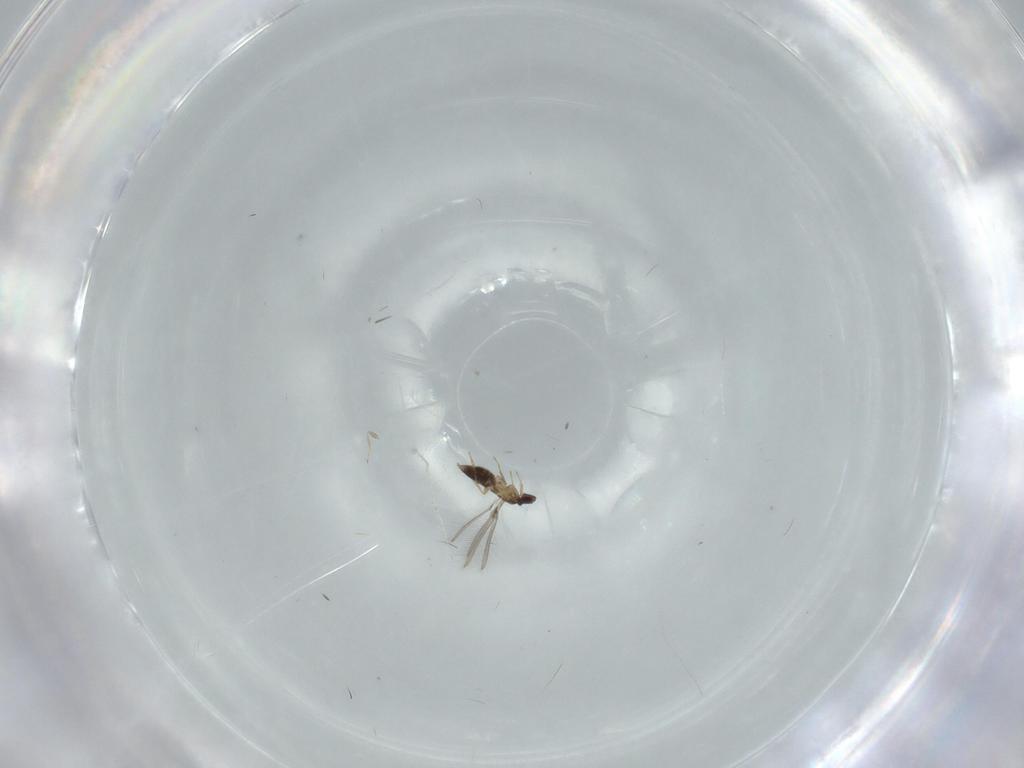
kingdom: Animalia
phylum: Arthropoda
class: Insecta
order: Hymenoptera
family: Mymaridae
